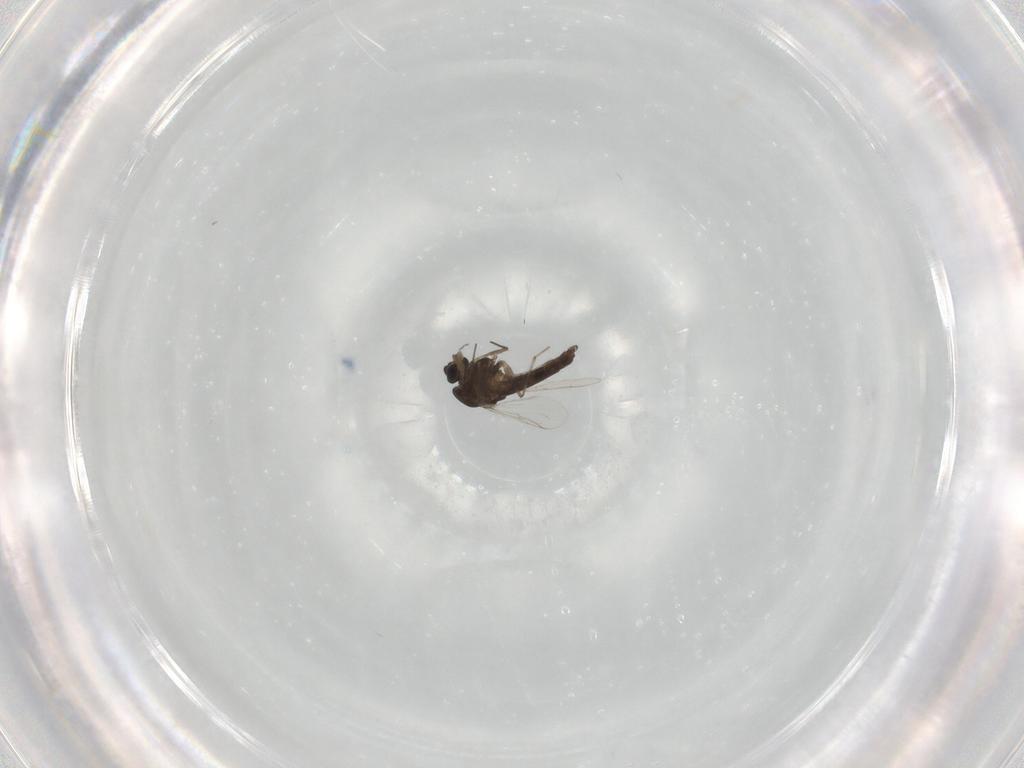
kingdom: Animalia
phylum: Arthropoda
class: Insecta
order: Diptera
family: Chironomidae
